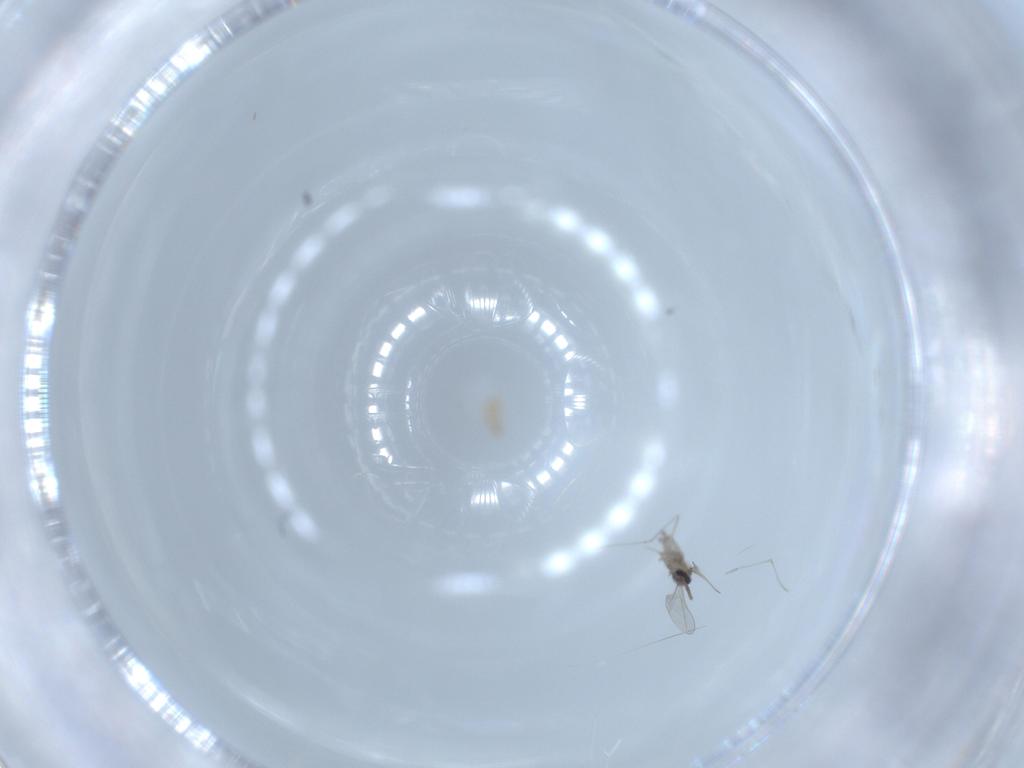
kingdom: Animalia
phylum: Arthropoda
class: Insecta
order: Diptera
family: Cecidomyiidae
